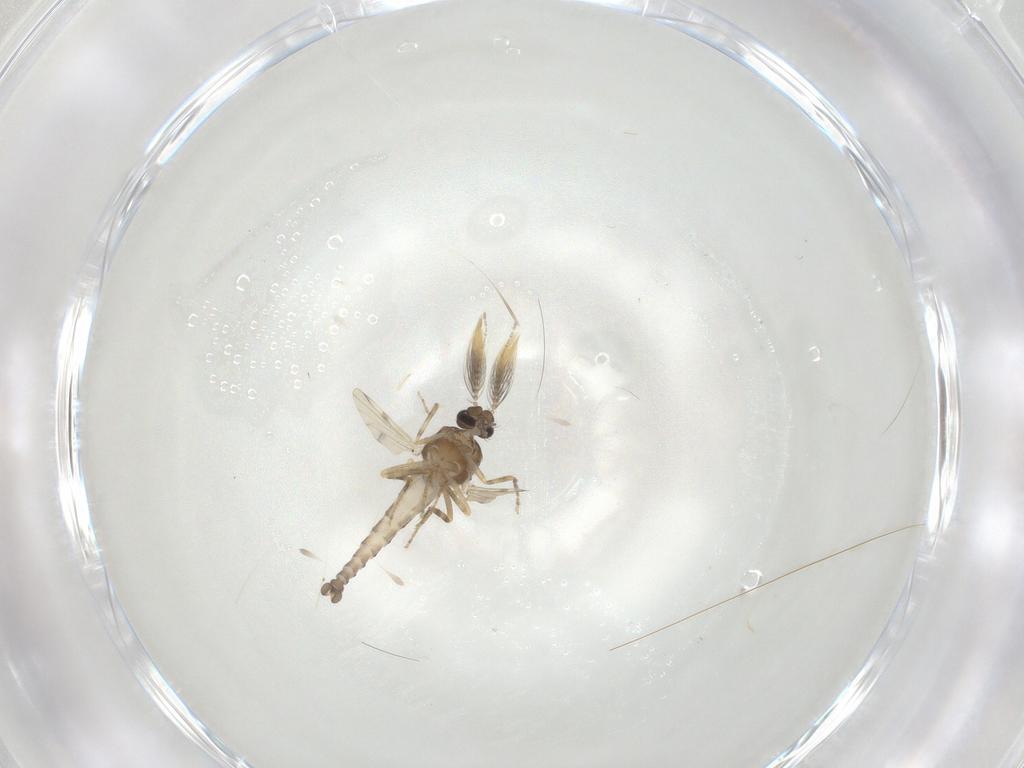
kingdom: Animalia
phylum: Arthropoda
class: Insecta
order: Diptera
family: Ceratopogonidae
